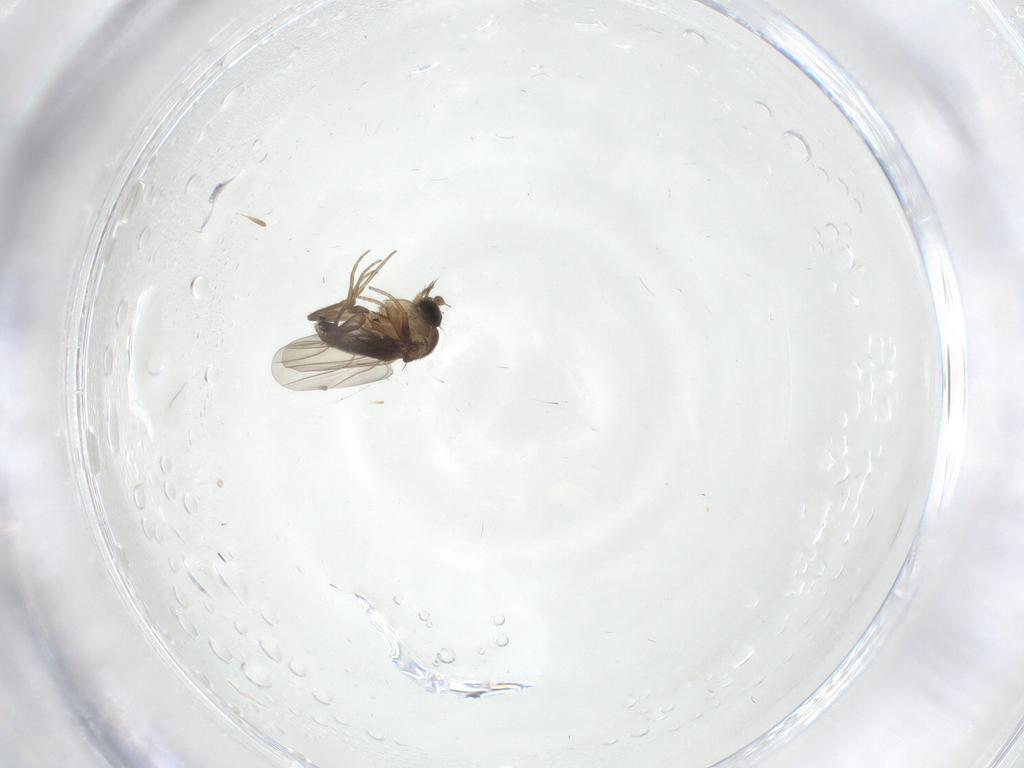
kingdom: Animalia
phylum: Arthropoda
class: Insecta
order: Diptera
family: Phoridae
